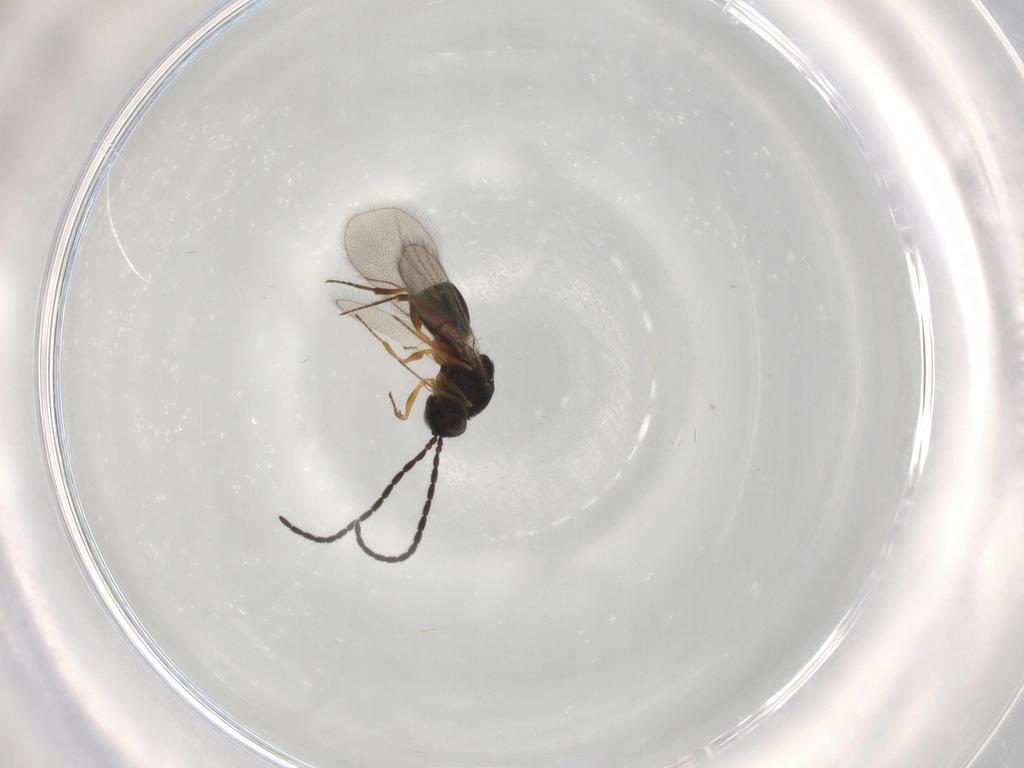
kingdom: Animalia
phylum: Arthropoda
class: Insecta
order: Hymenoptera
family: Figitidae
